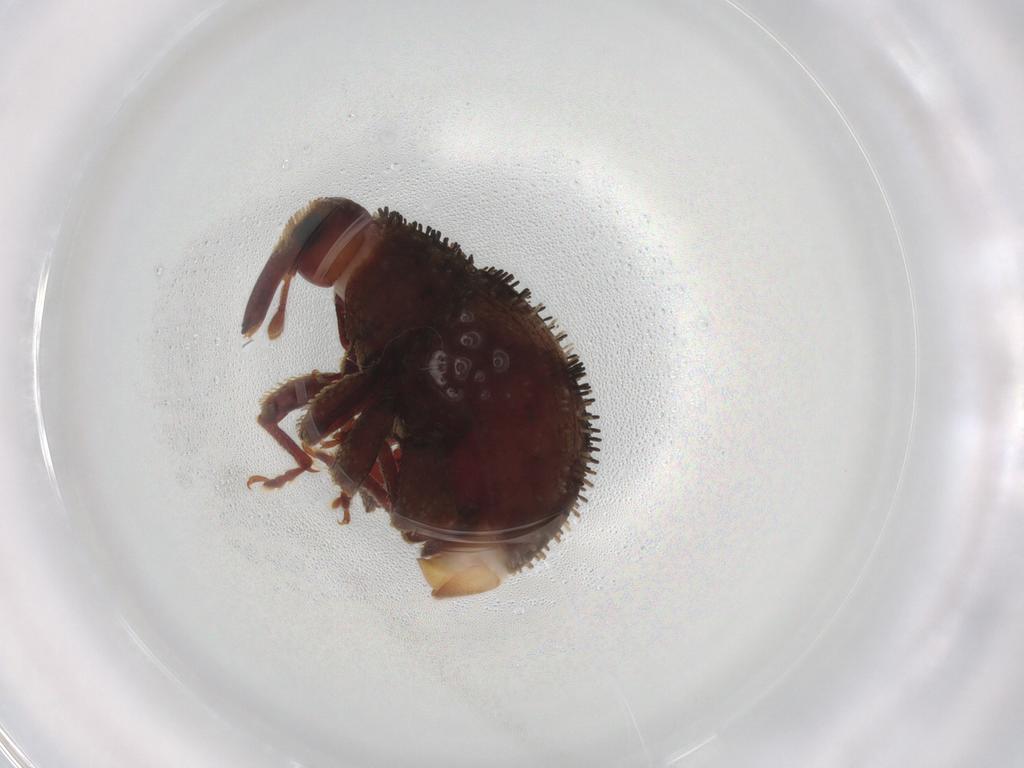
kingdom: Animalia
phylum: Arthropoda
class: Insecta
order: Coleoptera
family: Curculionidae
